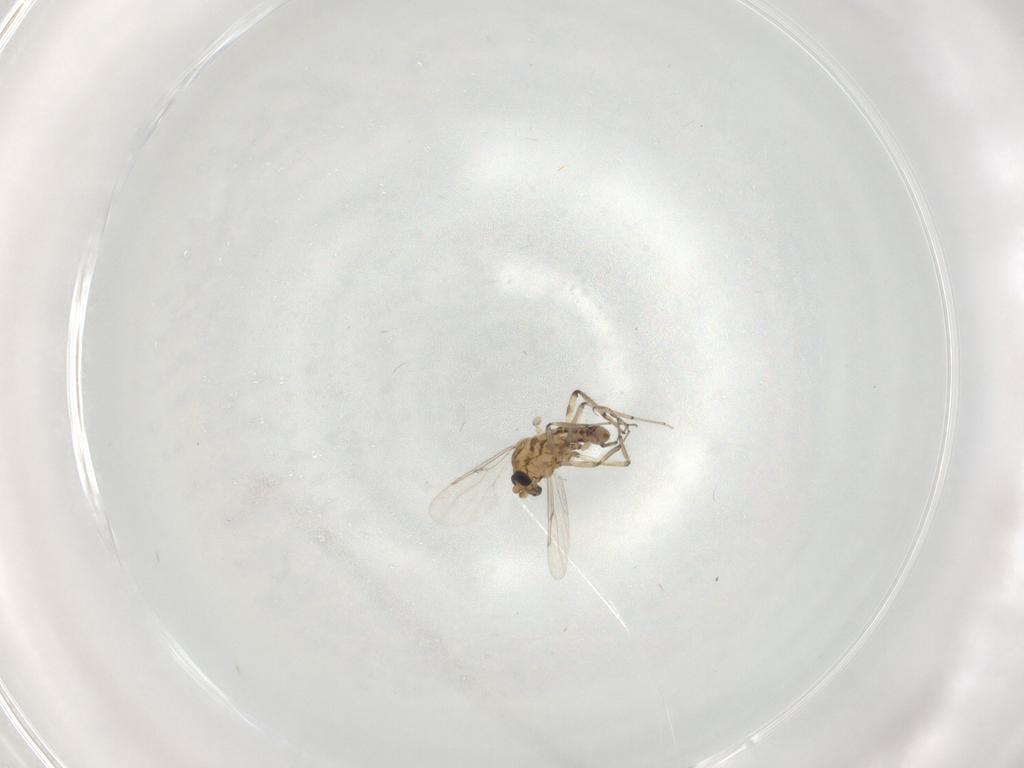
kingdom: Animalia
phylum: Arthropoda
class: Insecta
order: Diptera
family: Ceratopogonidae
